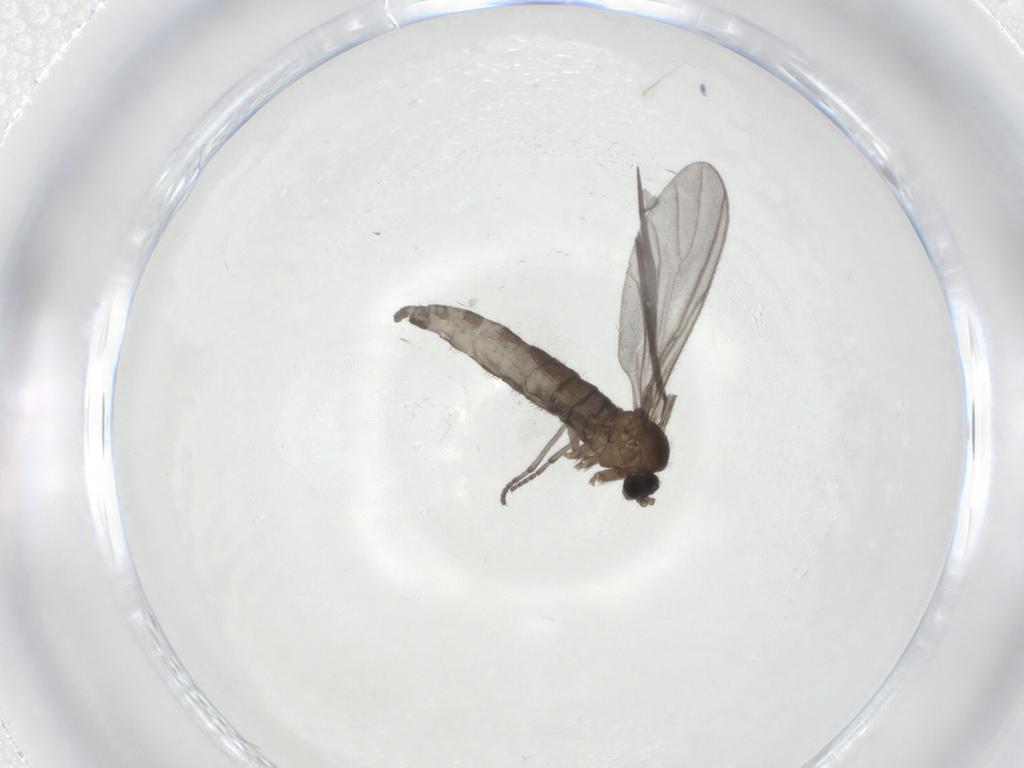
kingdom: Animalia
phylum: Arthropoda
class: Insecta
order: Diptera
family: Sciaridae
